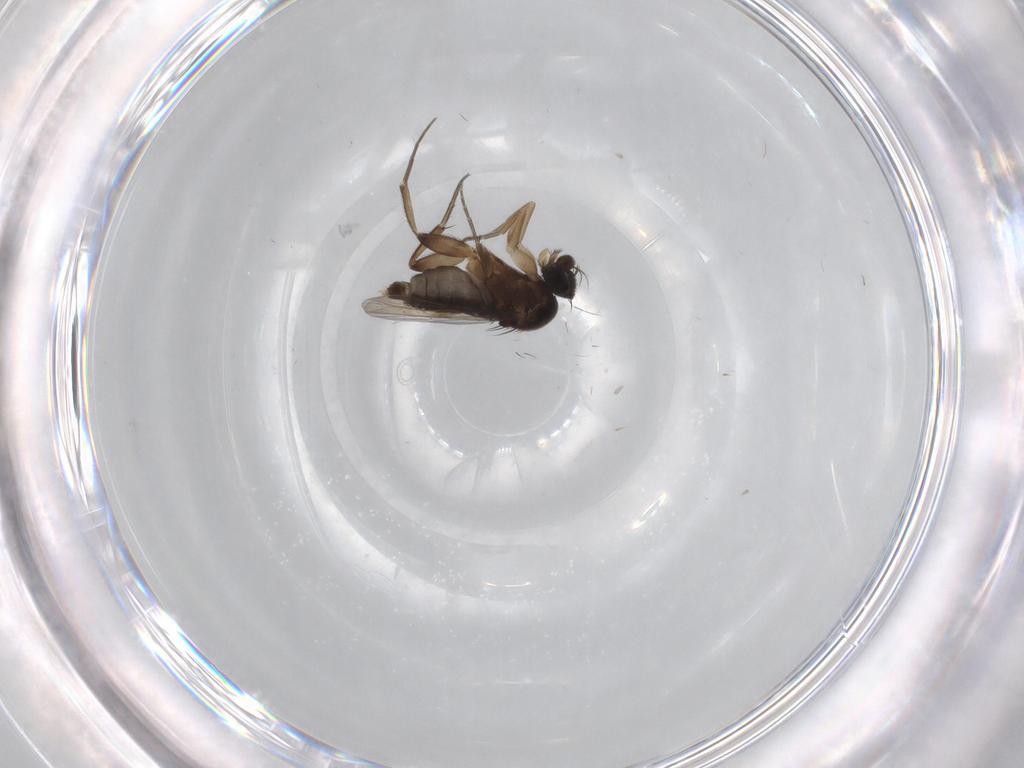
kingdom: Animalia
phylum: Arthropoda
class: Insecta
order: Diptera
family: Phoridae
